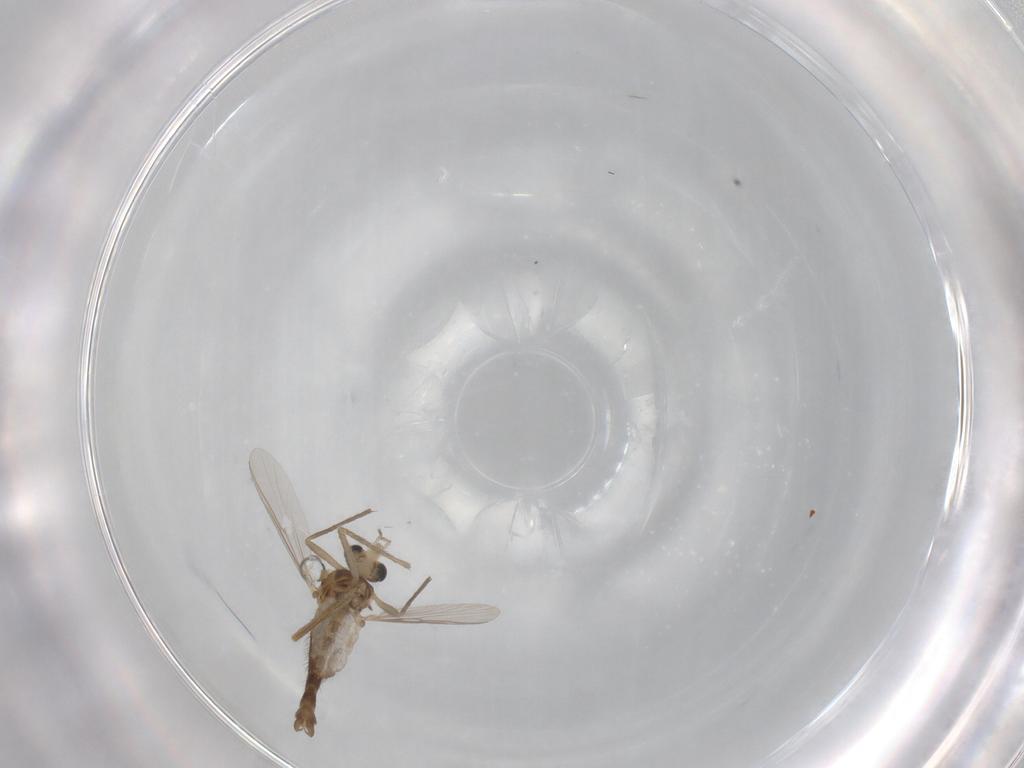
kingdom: Animalia
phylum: Arthropoda
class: Insecta
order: Diptera
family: Chironomidae
